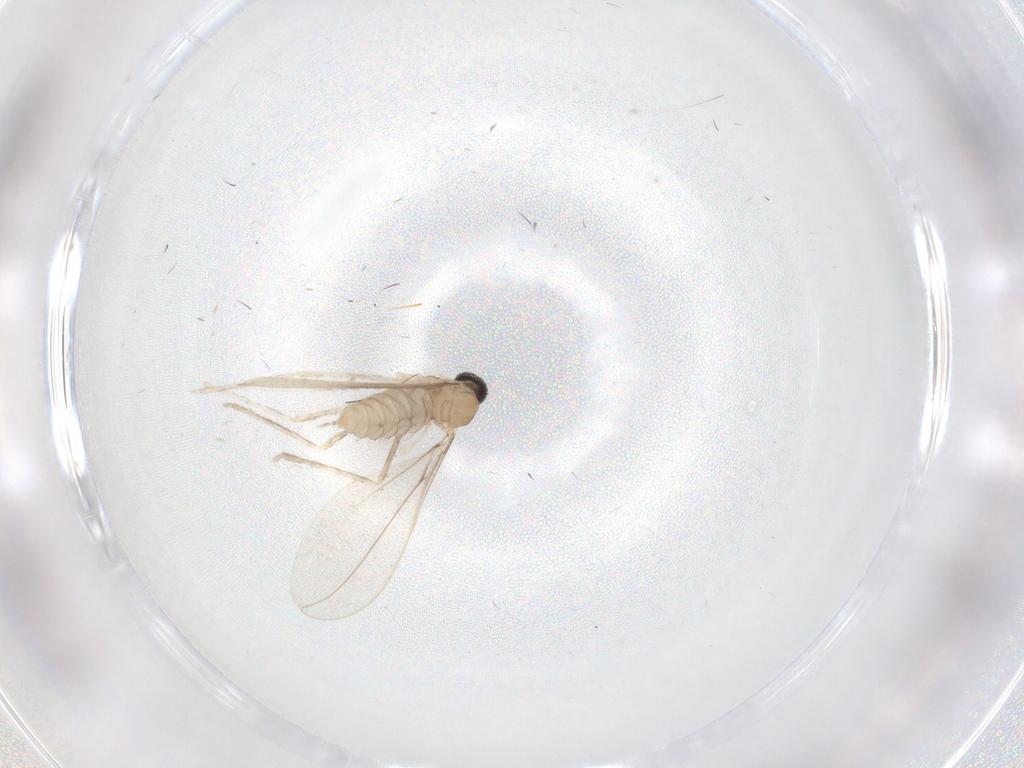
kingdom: Animalia
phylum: Arthropoda
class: Insecta
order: Diptera
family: Cecidomyiidae
